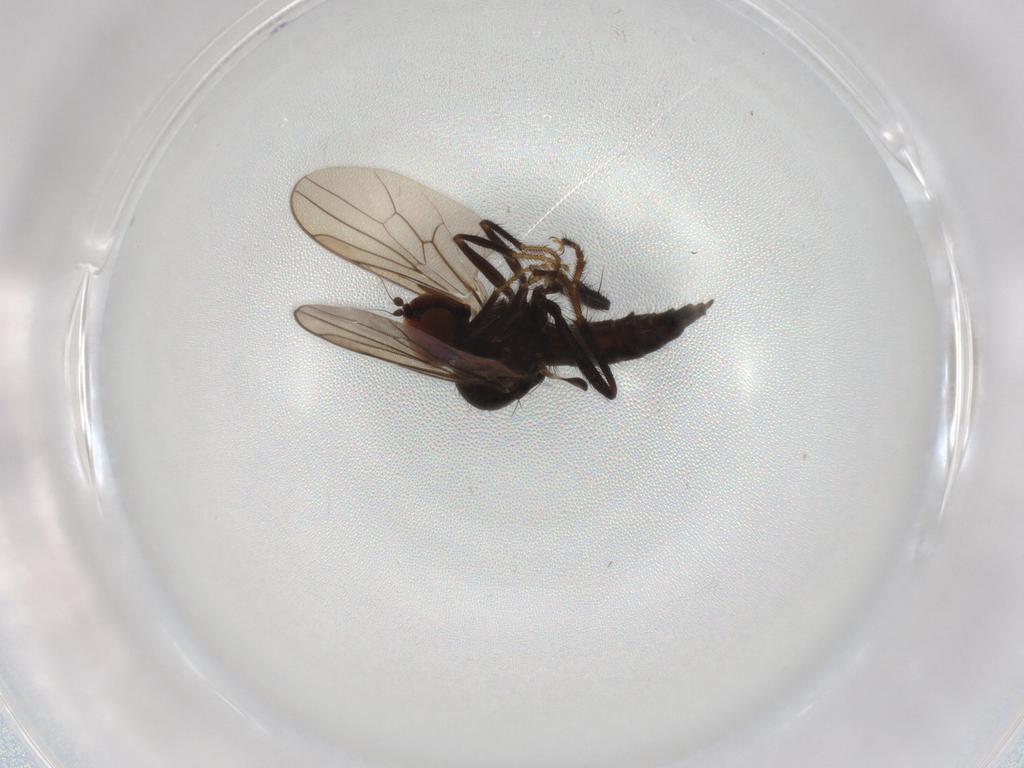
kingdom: Animalia
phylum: Arthropoda
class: Insecta
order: Diptera
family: Hybotidae
